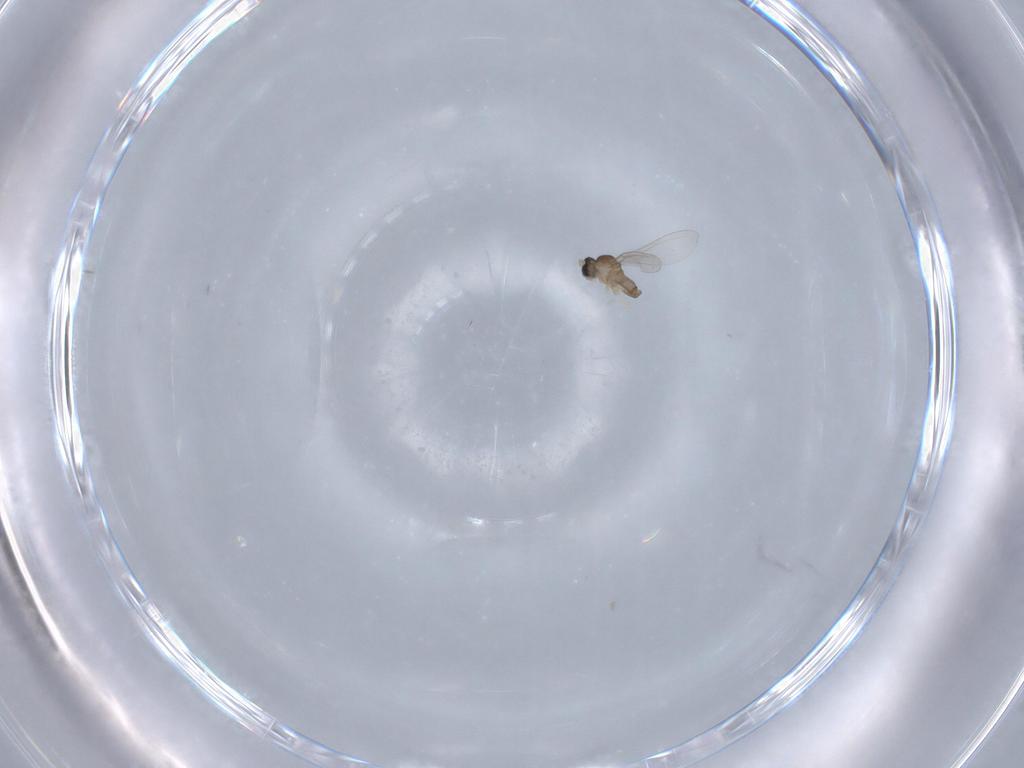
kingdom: Animalia
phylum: Arthropoda
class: Insecta
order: Diptera
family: Cecidomyiidae
